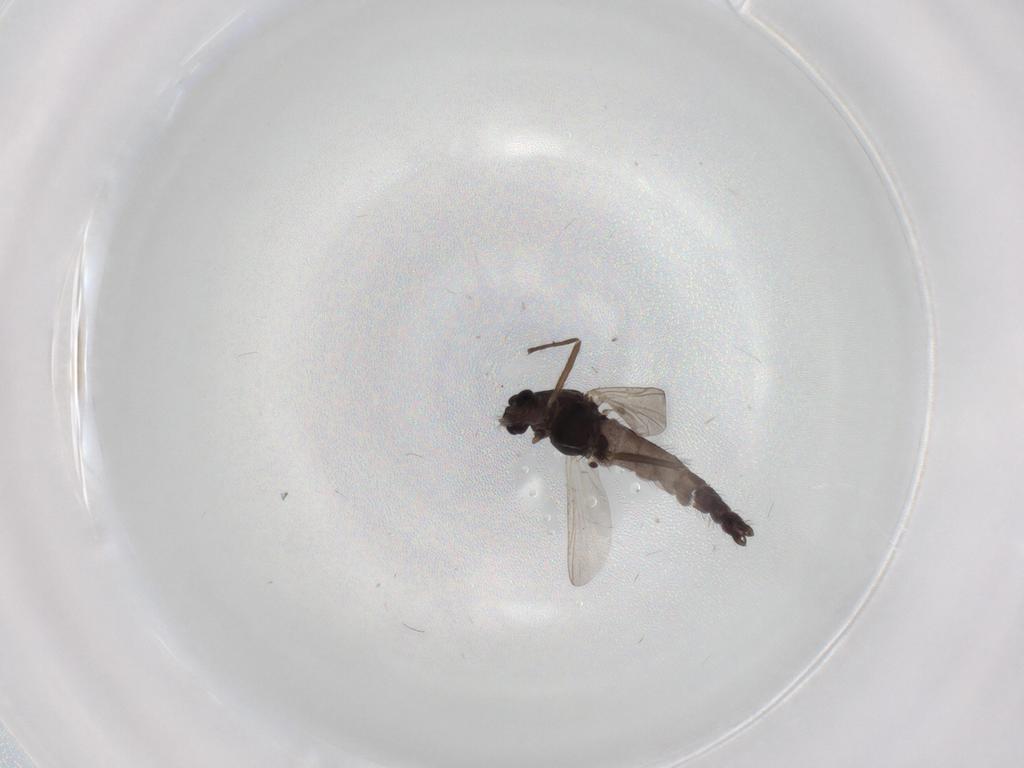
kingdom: Animalia
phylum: Arthropoda
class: Insecta
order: Diptera
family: Chironomidae
